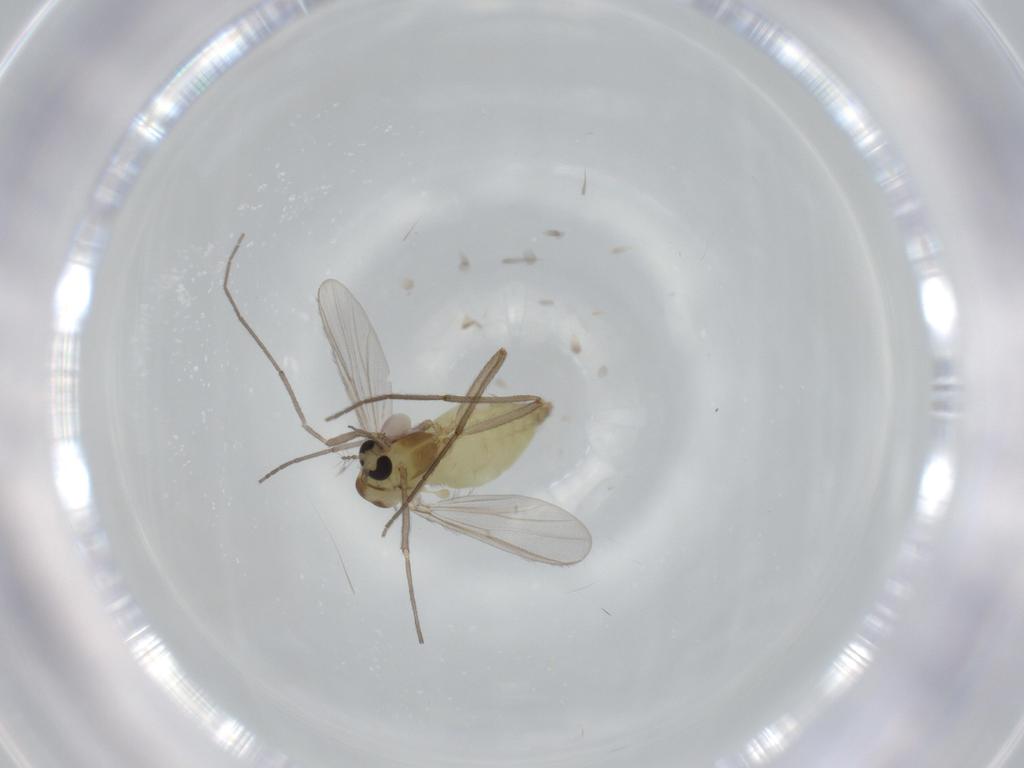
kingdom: Animalia
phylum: Arthropoda
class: Insecta
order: Diptera
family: Chironomidae
